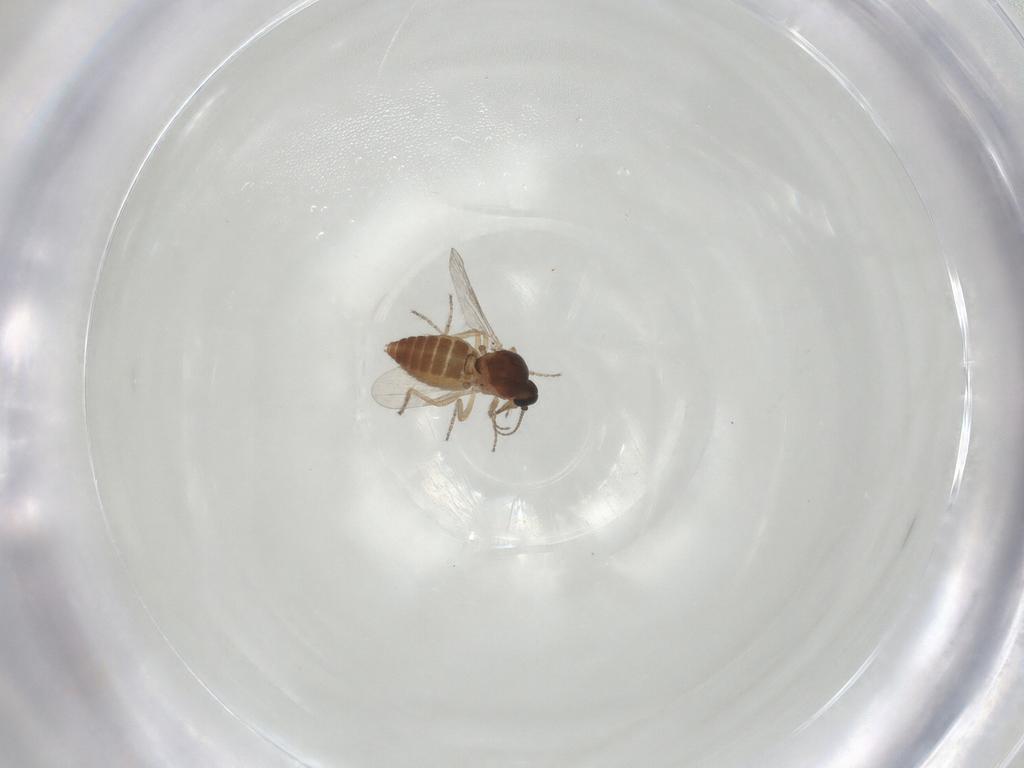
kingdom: Animalia
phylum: Arthropoda
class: Insecta
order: Diptera
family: Ceratopogonidae
